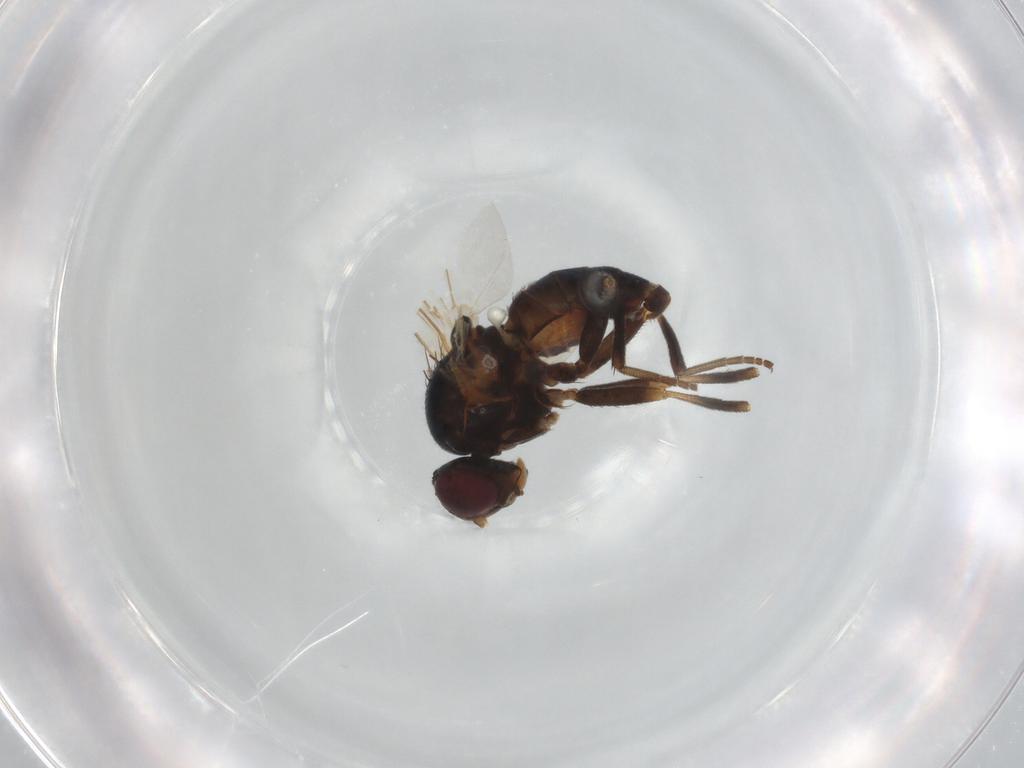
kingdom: Animalia
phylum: Arthropoda
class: Insecta
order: Diptera
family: Agromyzidae
